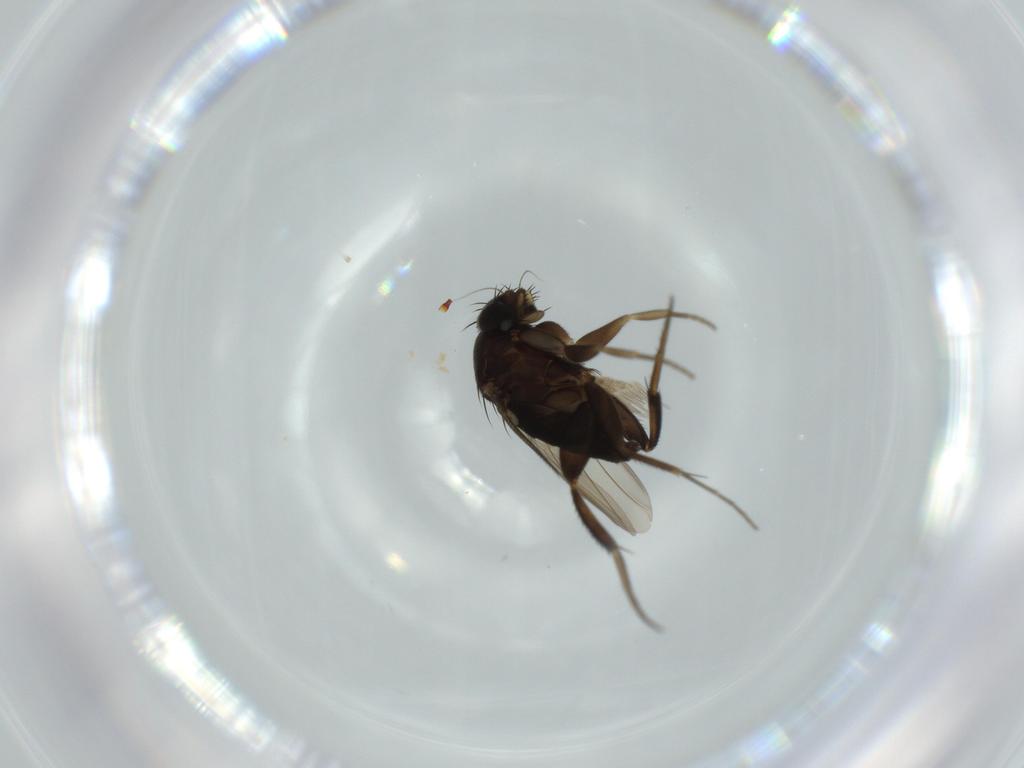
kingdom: Animalia
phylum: Arthropoda
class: Insecta
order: Diptera
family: Phoridae
